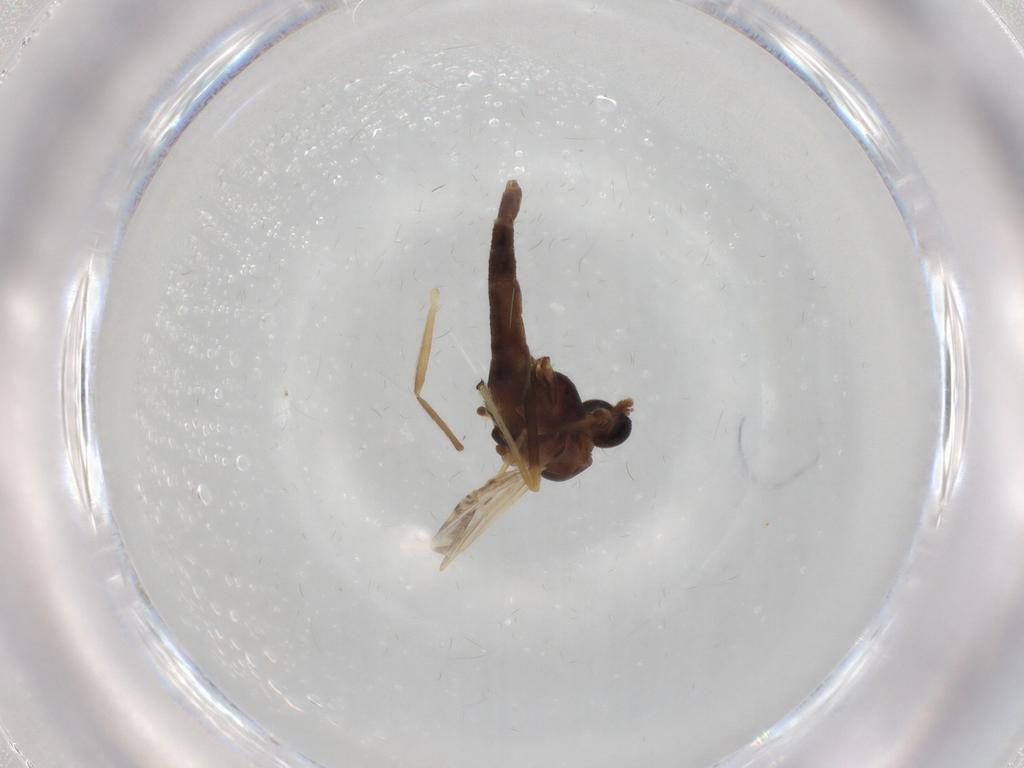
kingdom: Animalia
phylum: Arthropoda
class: Insecta
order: Diptera
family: Chironomidae
